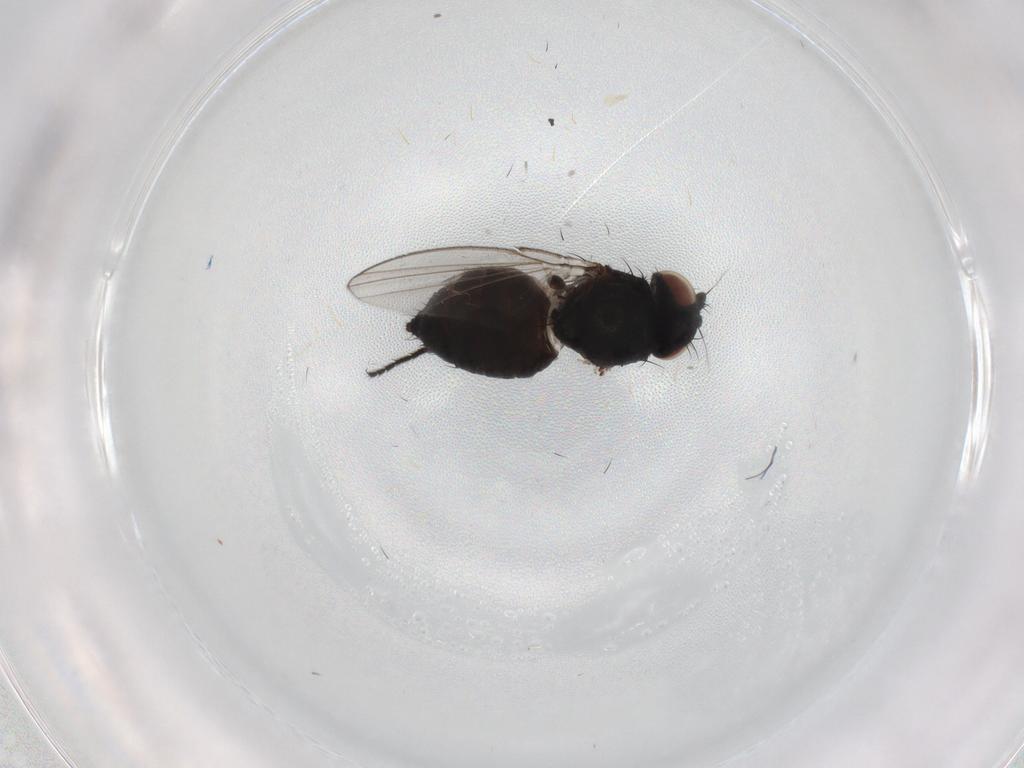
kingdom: Animalia
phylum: Arthropoda
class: Insecta
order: Diptera
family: Milichiidae
